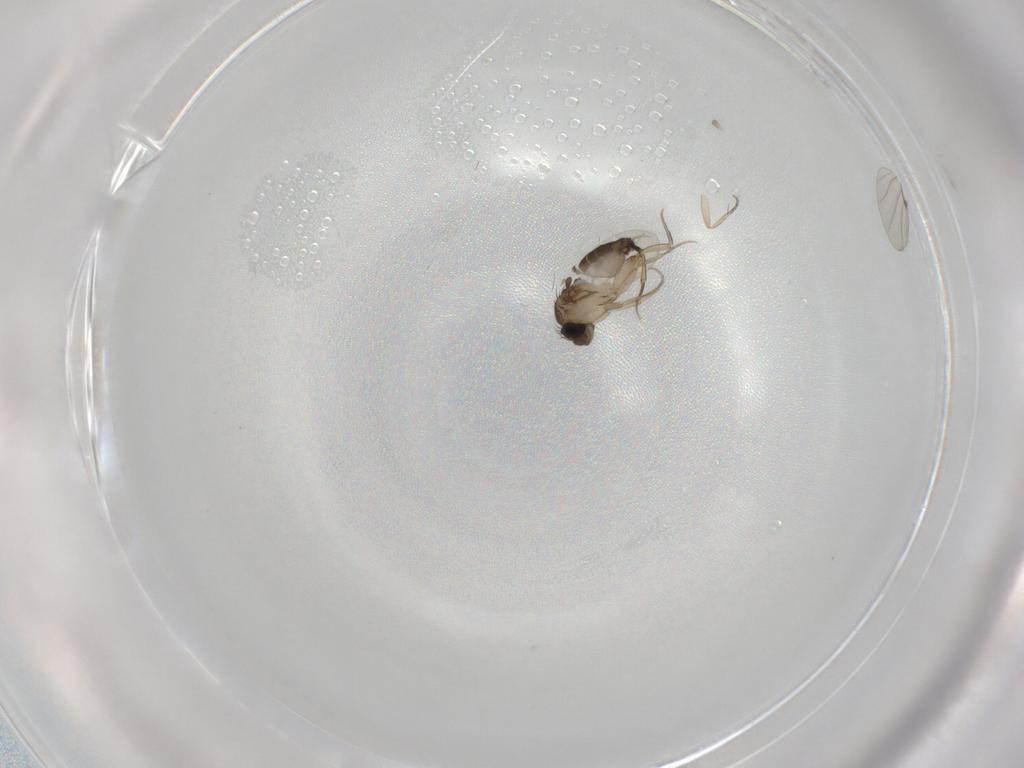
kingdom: Animalia
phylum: Arthropoda
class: Insecta
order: Diptera
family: Phoridae
